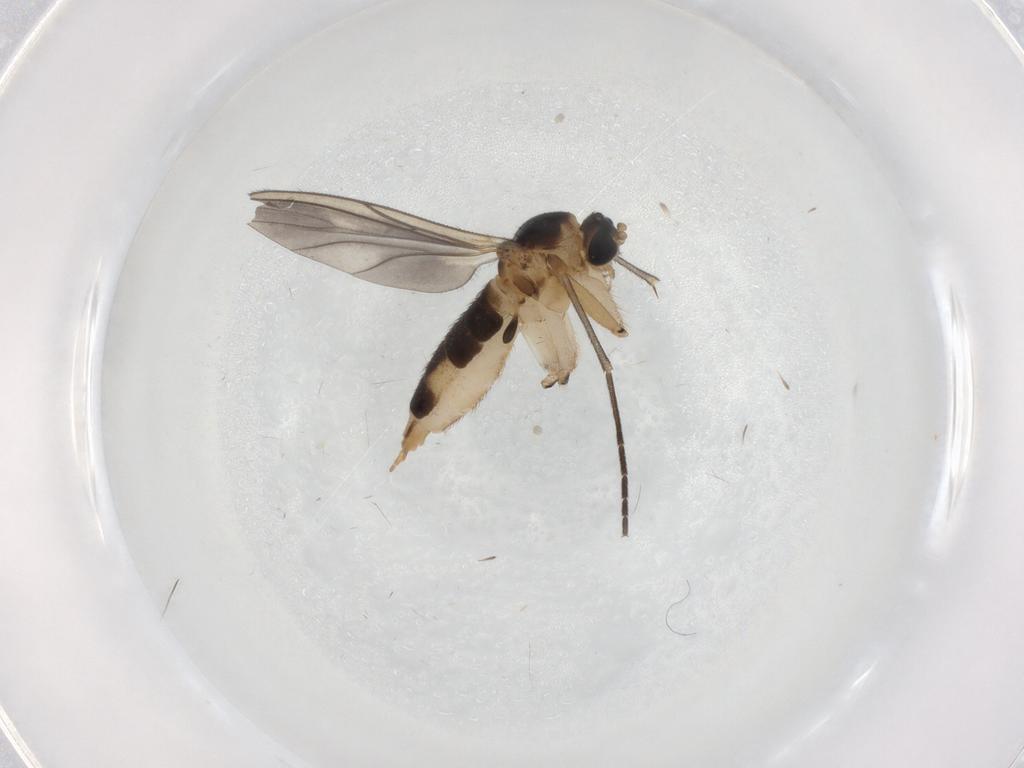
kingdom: Animalia
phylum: Arthropoda
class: Insecta
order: Diptera
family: Sciaridae
